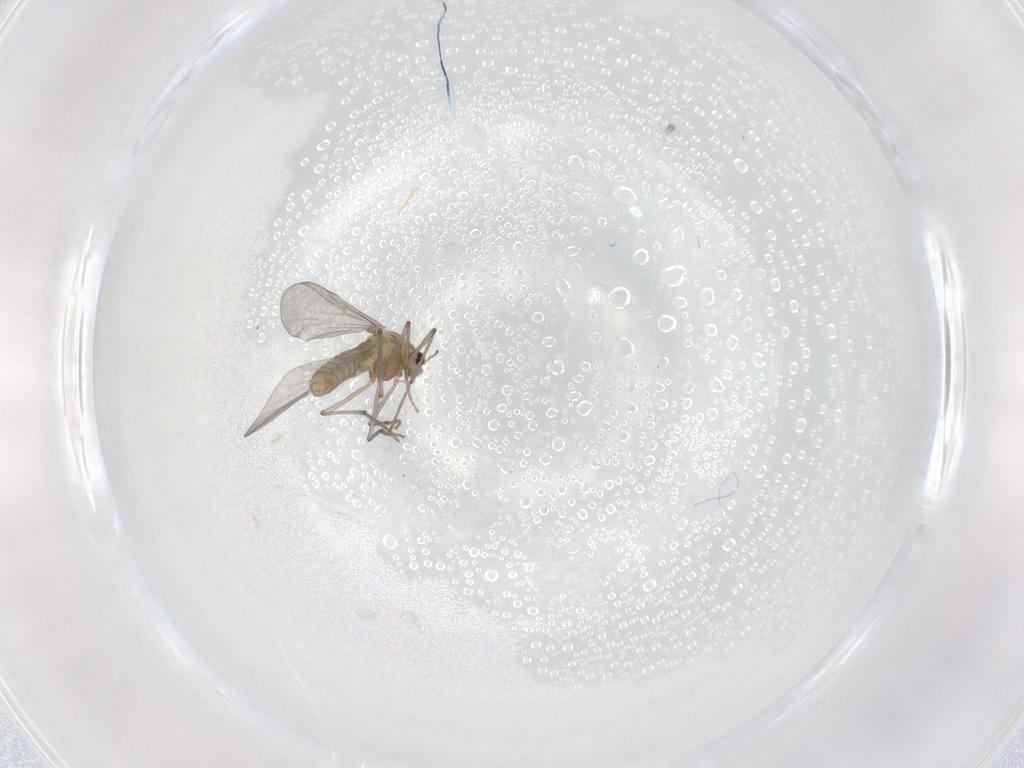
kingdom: Animalia
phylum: Arthropoda
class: Insecta
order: Diptera
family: Chironomidae
